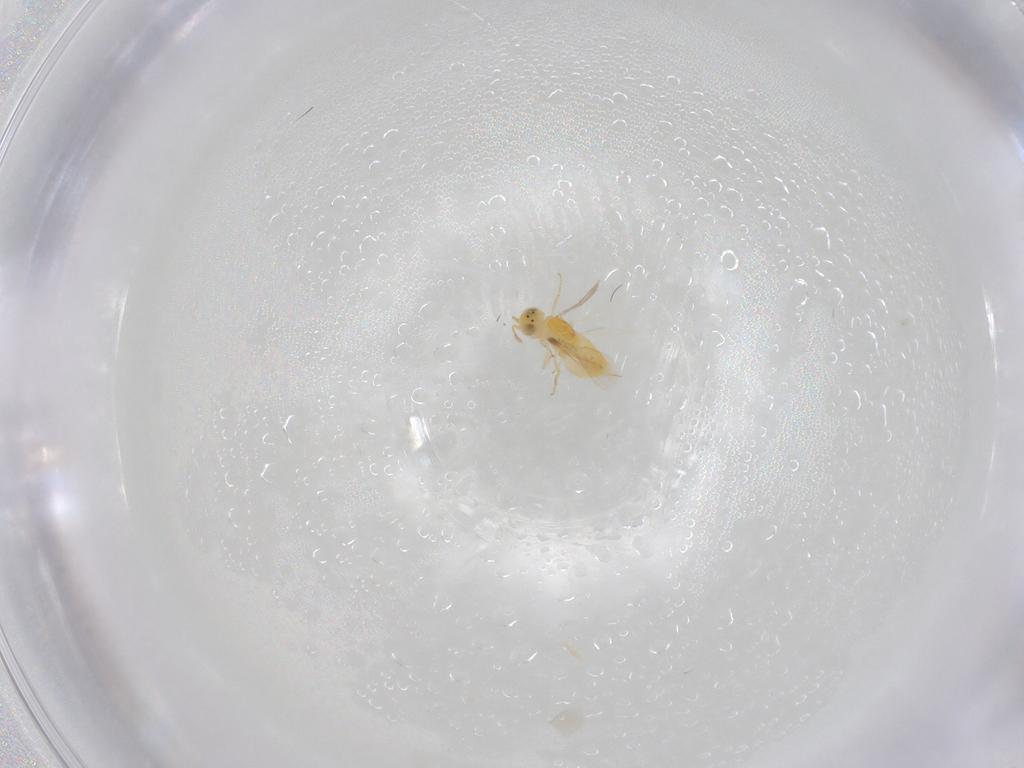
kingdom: Animalia
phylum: Arthropoda
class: Insecta
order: Hymenoptera
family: Aphelinidae
